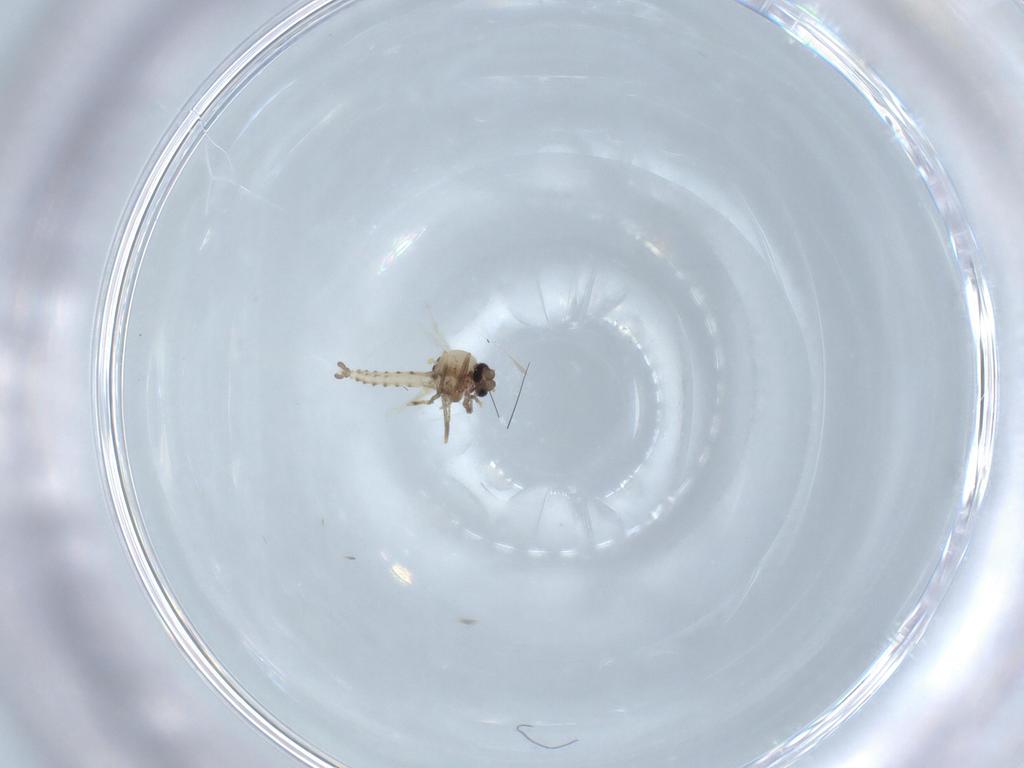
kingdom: Animalia
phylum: Arthropoda
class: Insecta
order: Diptera
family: Ceratopogonidae
